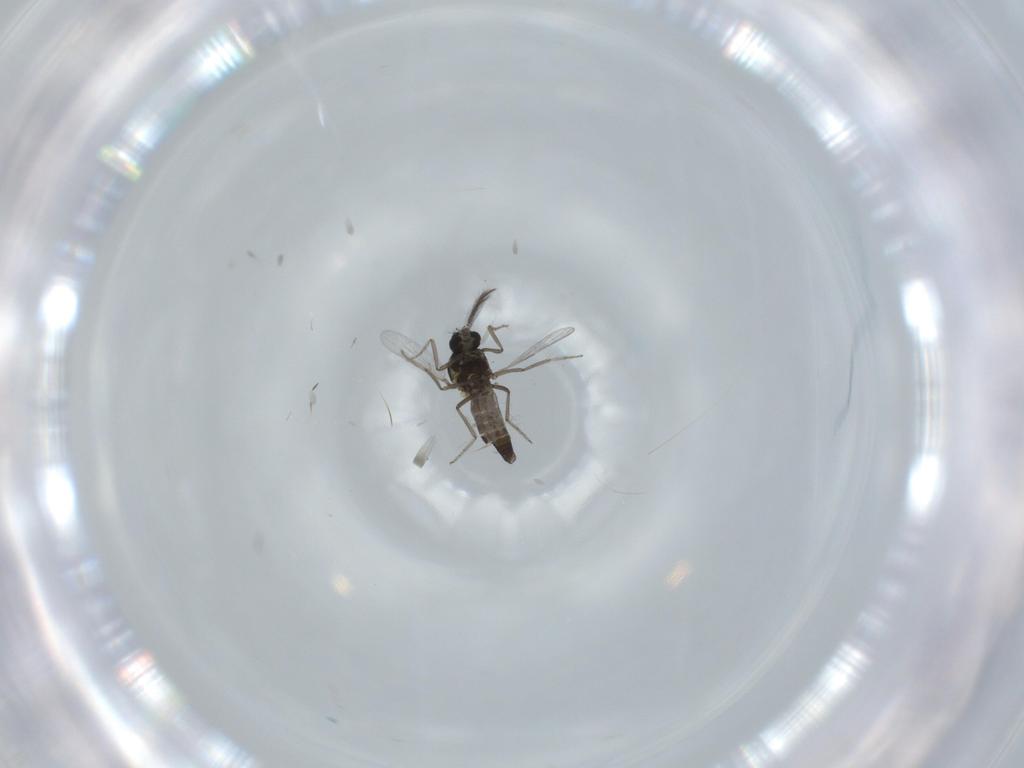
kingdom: Animalia
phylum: Arthropoda
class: Insecta
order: Diptera
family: Ceratopogonidae
